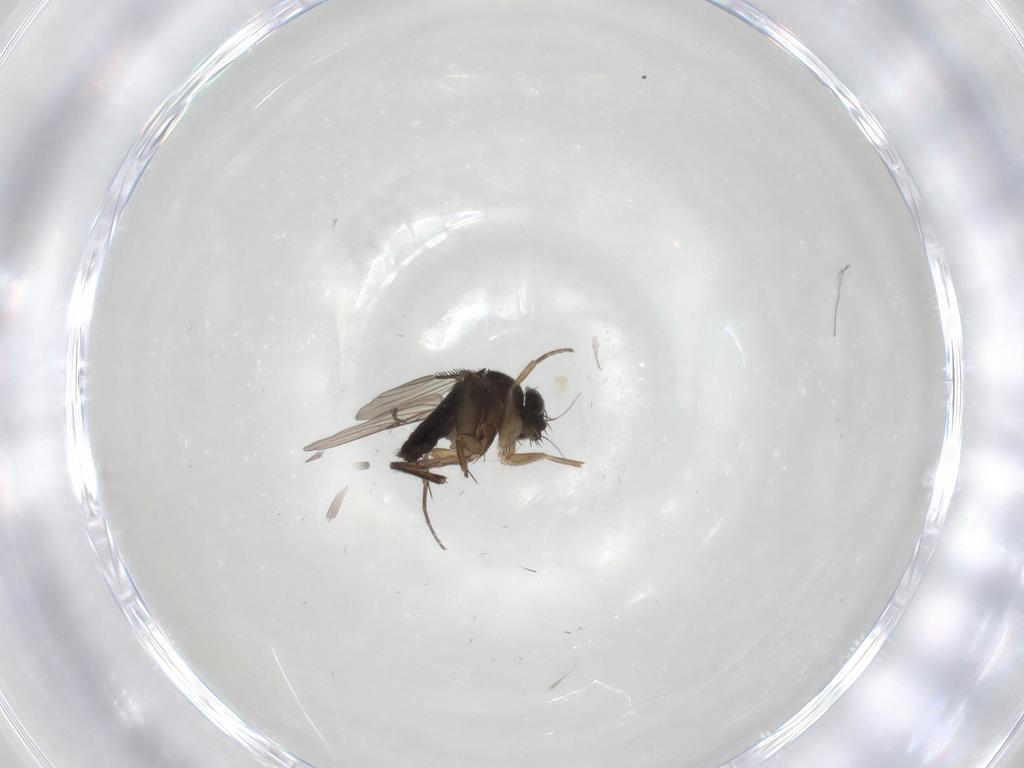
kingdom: Animalia
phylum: Arthropoda
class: Insecta
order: Diptera
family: Phoridae
